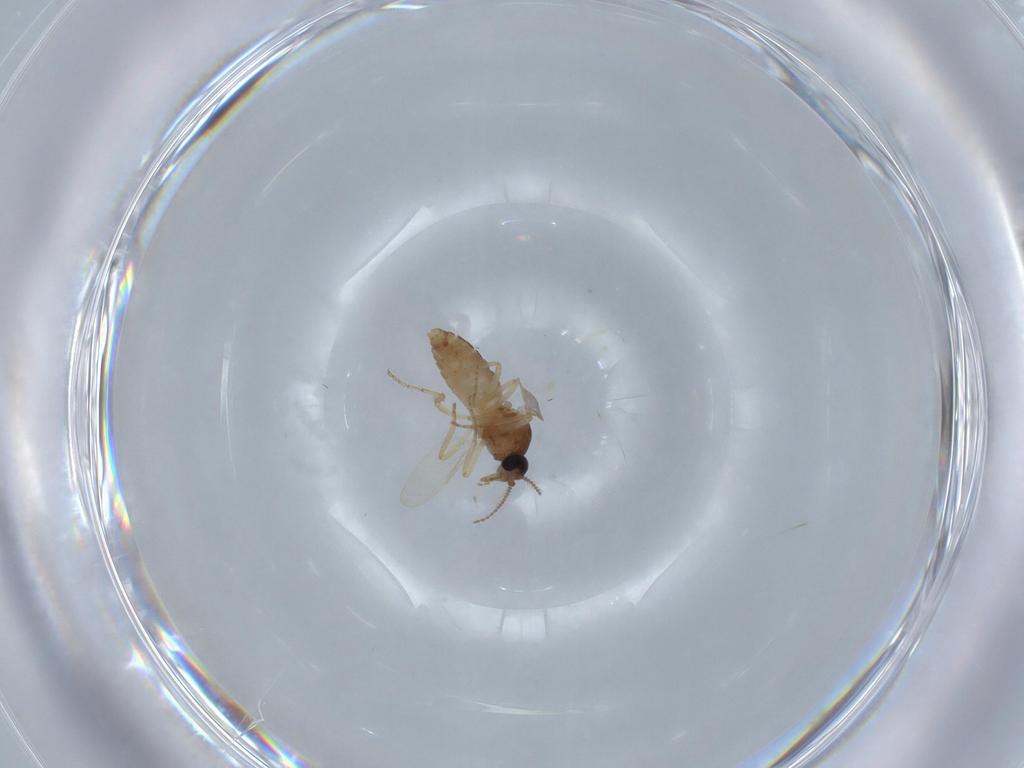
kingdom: Animalia
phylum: Arthropoda
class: Insecta
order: Diptera
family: Ceratopogonidae
